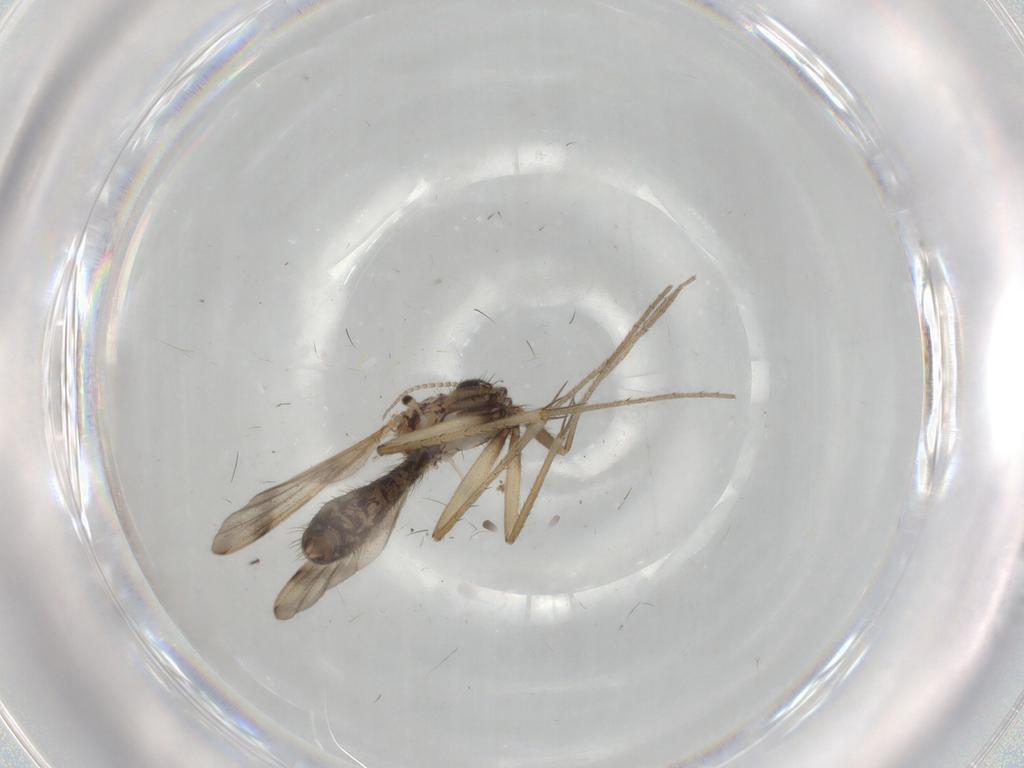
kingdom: Animalia
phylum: Arthropoda
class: Insecta
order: Diptera
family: Mycetophilidae
